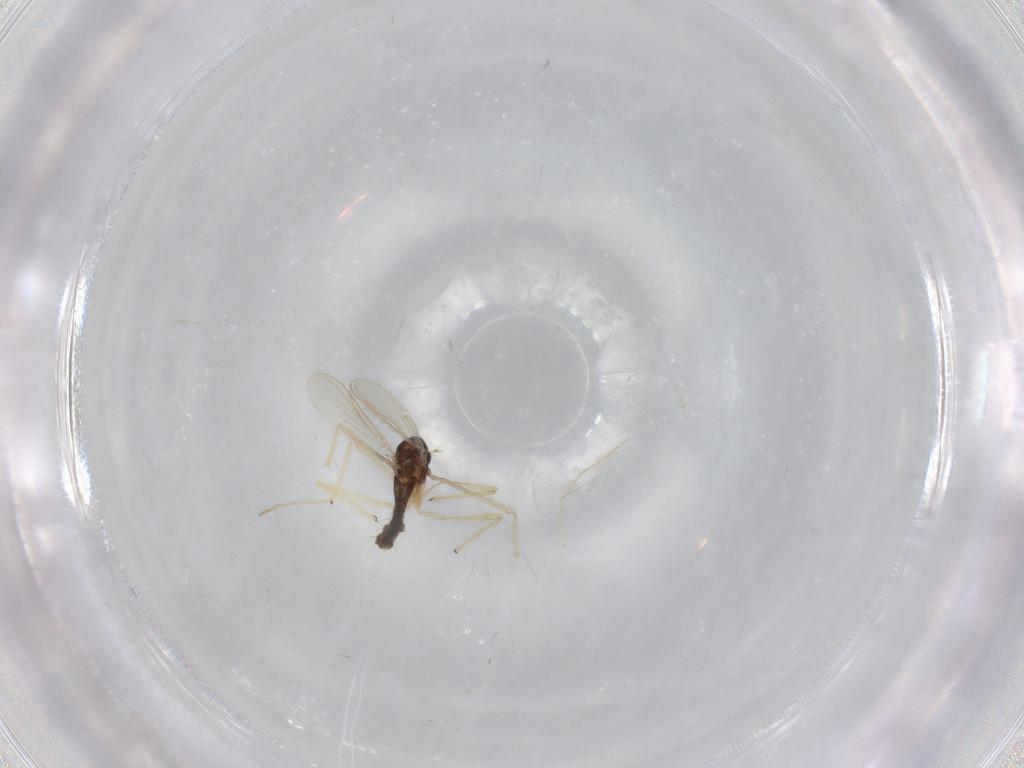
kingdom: Animalia
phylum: Arthropoda
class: Insecta
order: Diptera
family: Chironomidae
